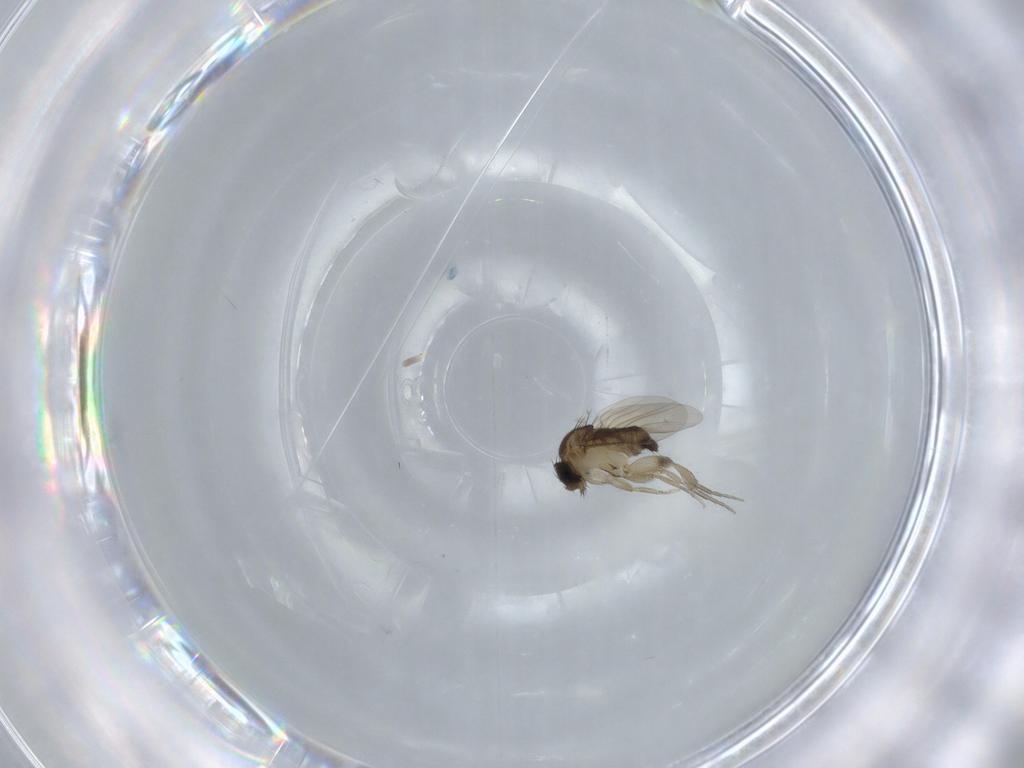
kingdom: Animalia
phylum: Arthropoda
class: Insecta
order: Diptera
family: Phoridae
